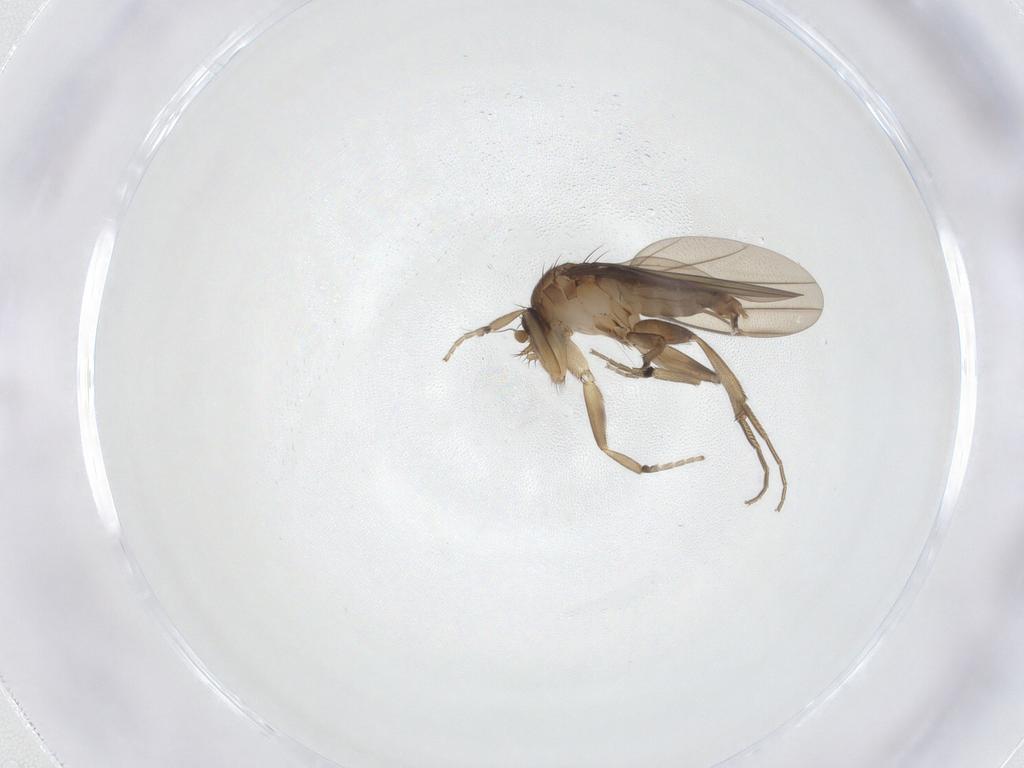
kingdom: Animalia
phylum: Arthropoda
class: Insecta
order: Diptera
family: Phoridae
